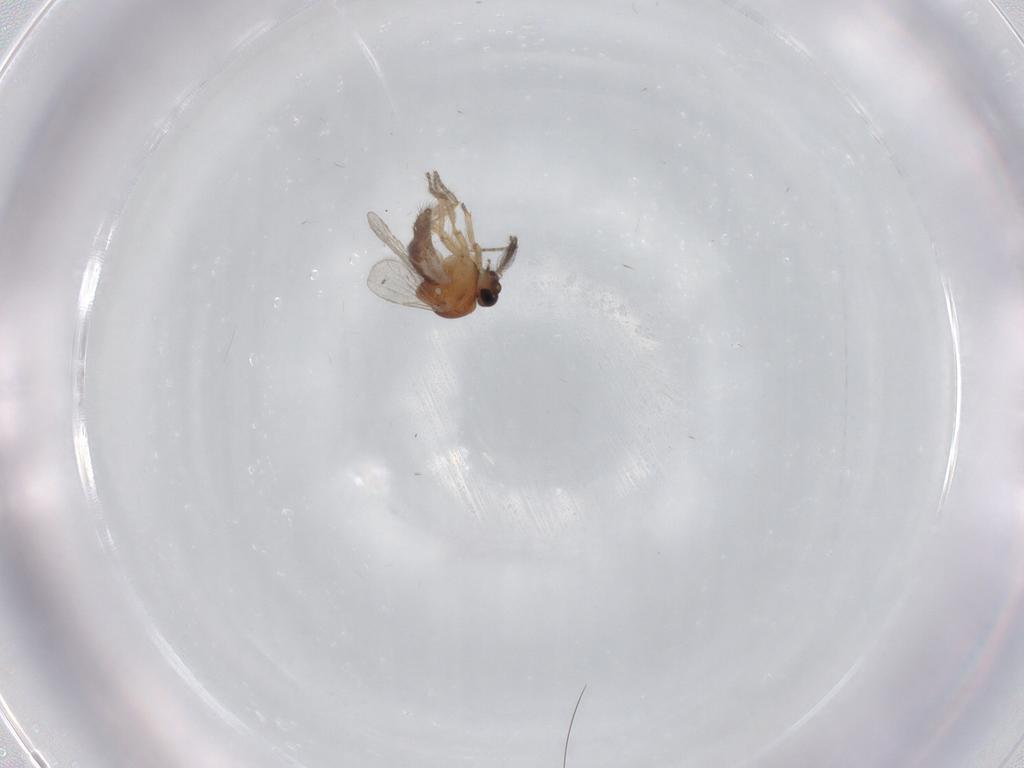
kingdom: Animalia
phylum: Arthropoda
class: Insecta
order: Diptera
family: Ceratopogonidae
